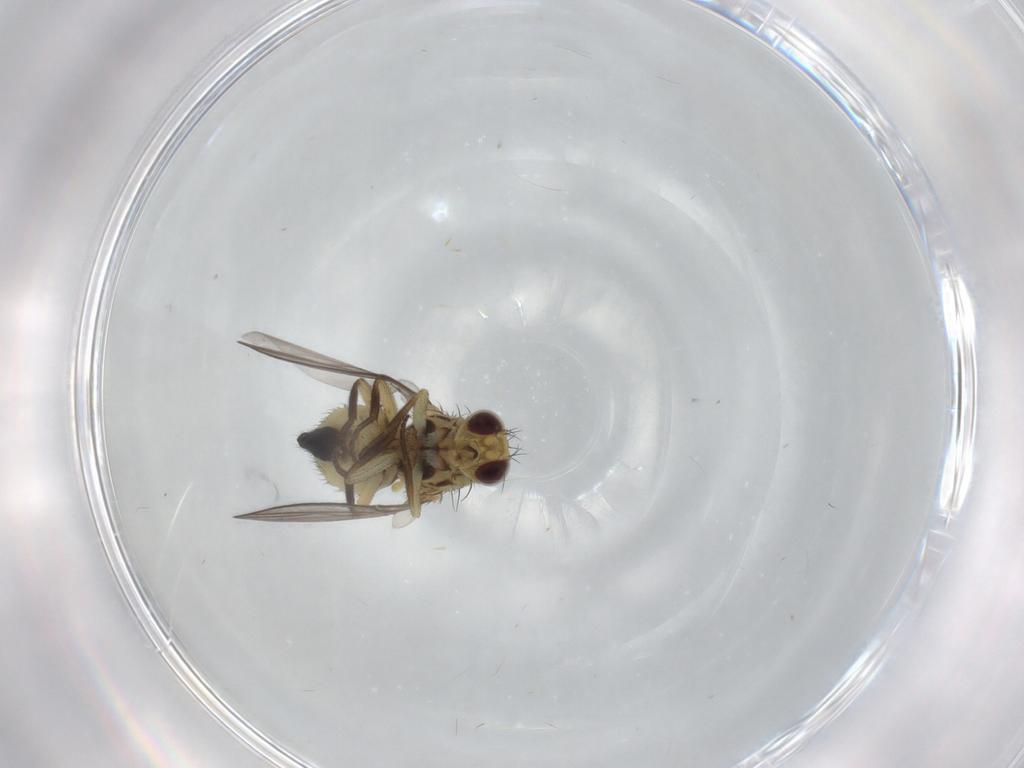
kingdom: Animalia
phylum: Arthropoda
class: Insecta
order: Diptera
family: Agromyzidae
